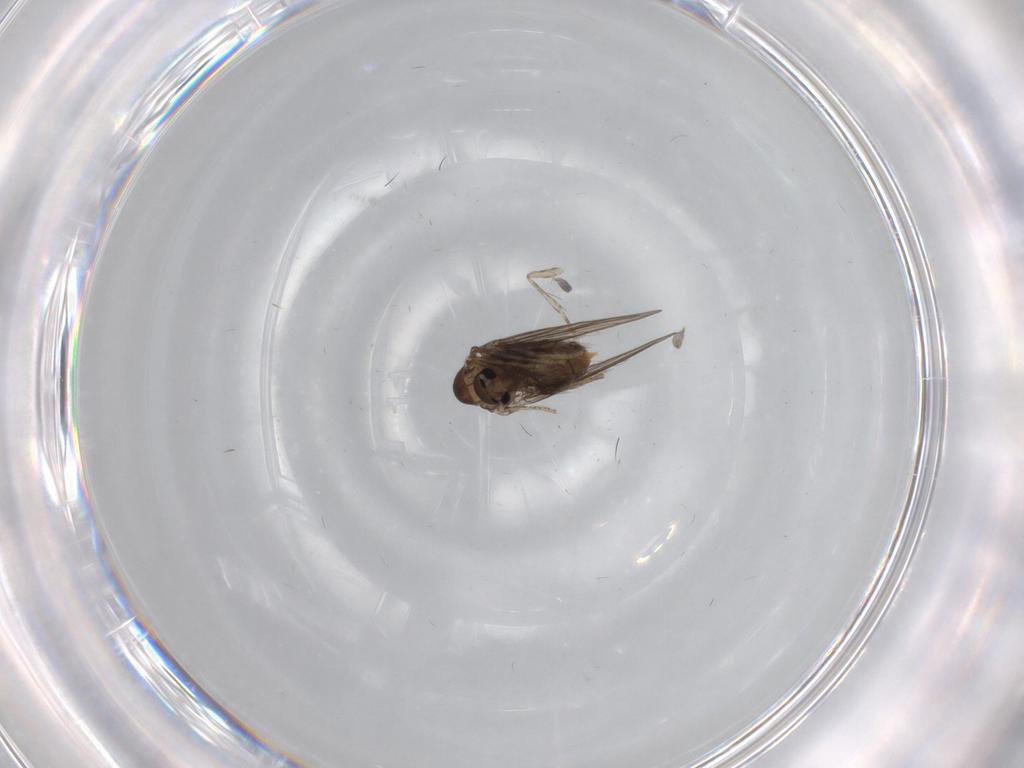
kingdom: Animalia
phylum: Arthropoda
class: Insecta
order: Diptera
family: Psychodidae
